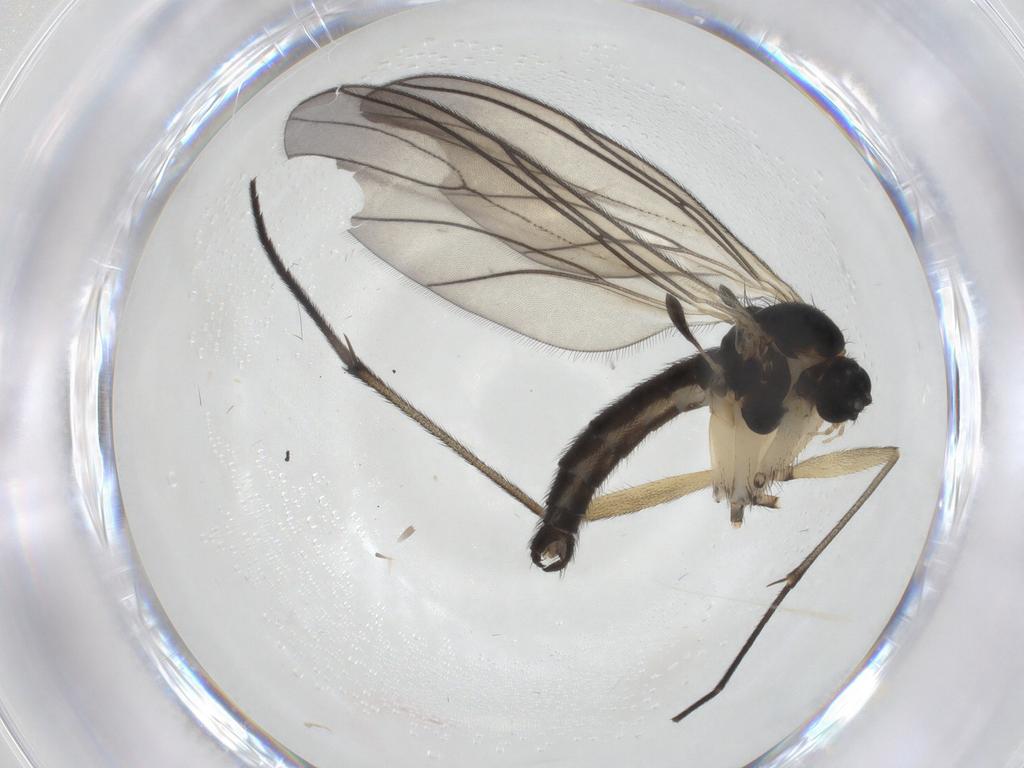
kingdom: Animalia
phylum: Arthropoda
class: Insecta
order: Diptera
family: Sciaridae
